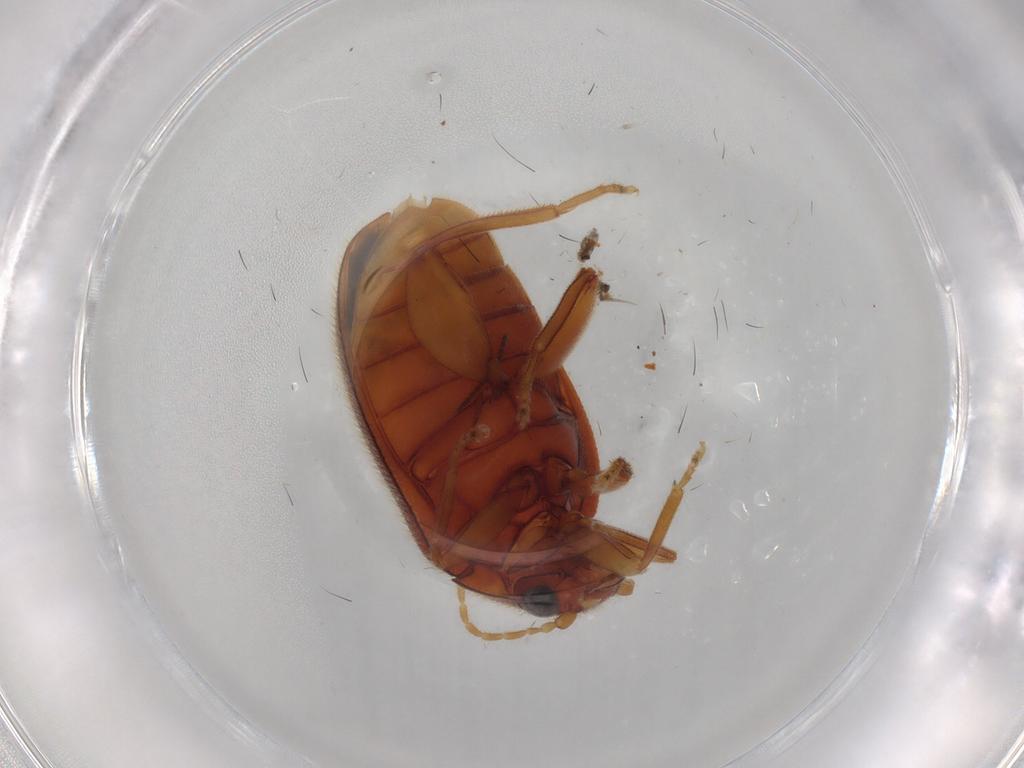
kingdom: Animalia
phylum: Arthropoda
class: Insecta
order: Coleoptera
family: Scirtidae
